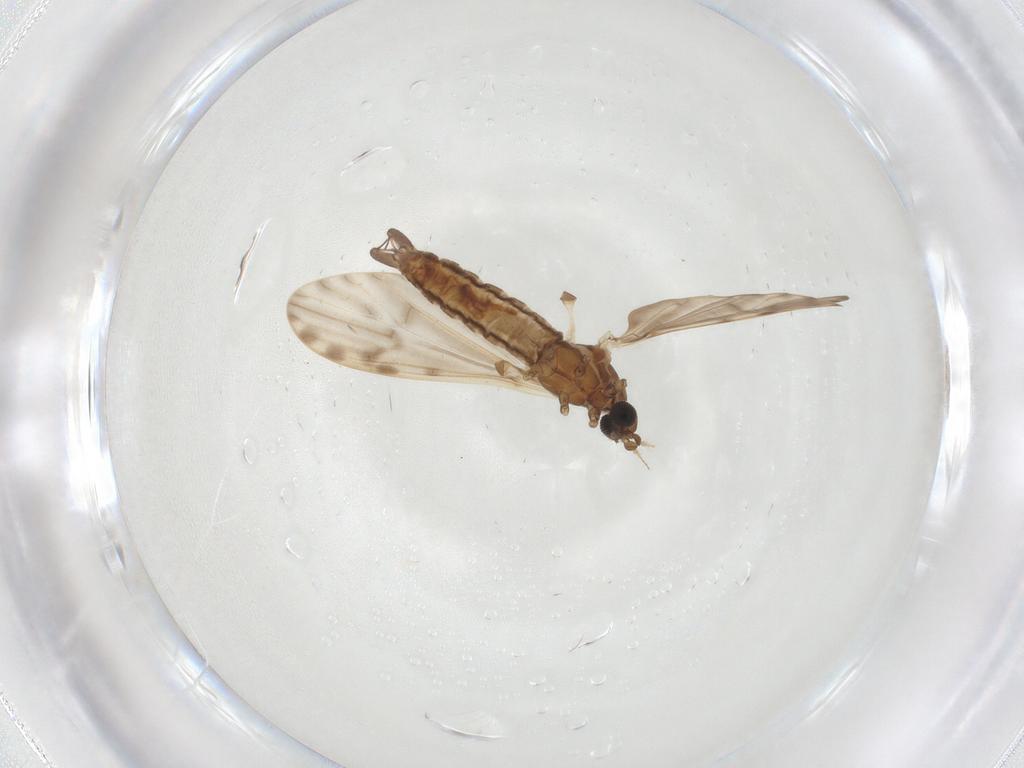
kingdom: Animalia
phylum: Arthropoda
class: Insecta
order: Diptera
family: Limoniidae
